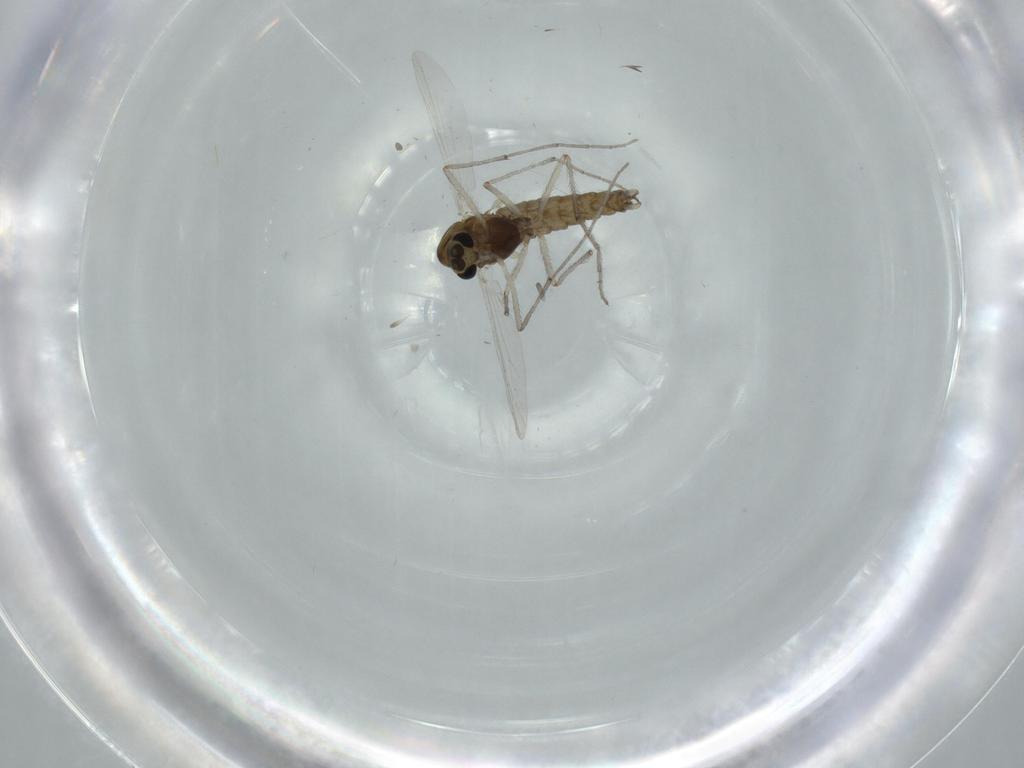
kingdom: Animalia
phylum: Arthropoda
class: Insecta
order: Diptera
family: Chironomidae
